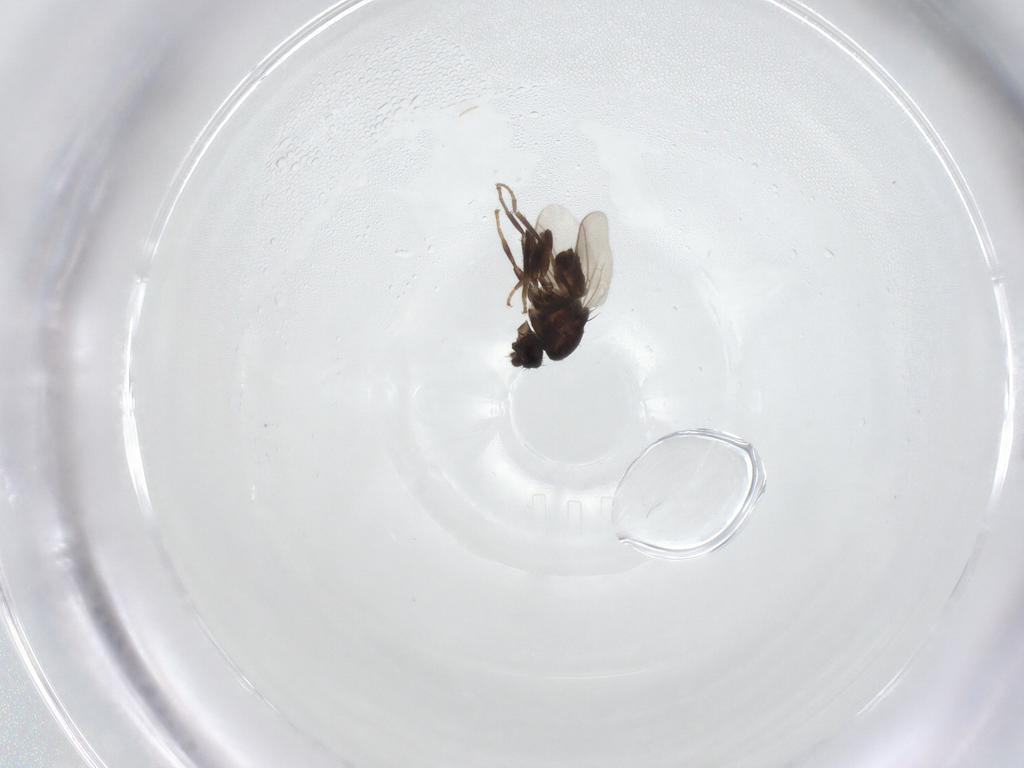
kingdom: Animalia
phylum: Arthropoda
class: Insecta
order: Diptera
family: Sphaeroceridae
